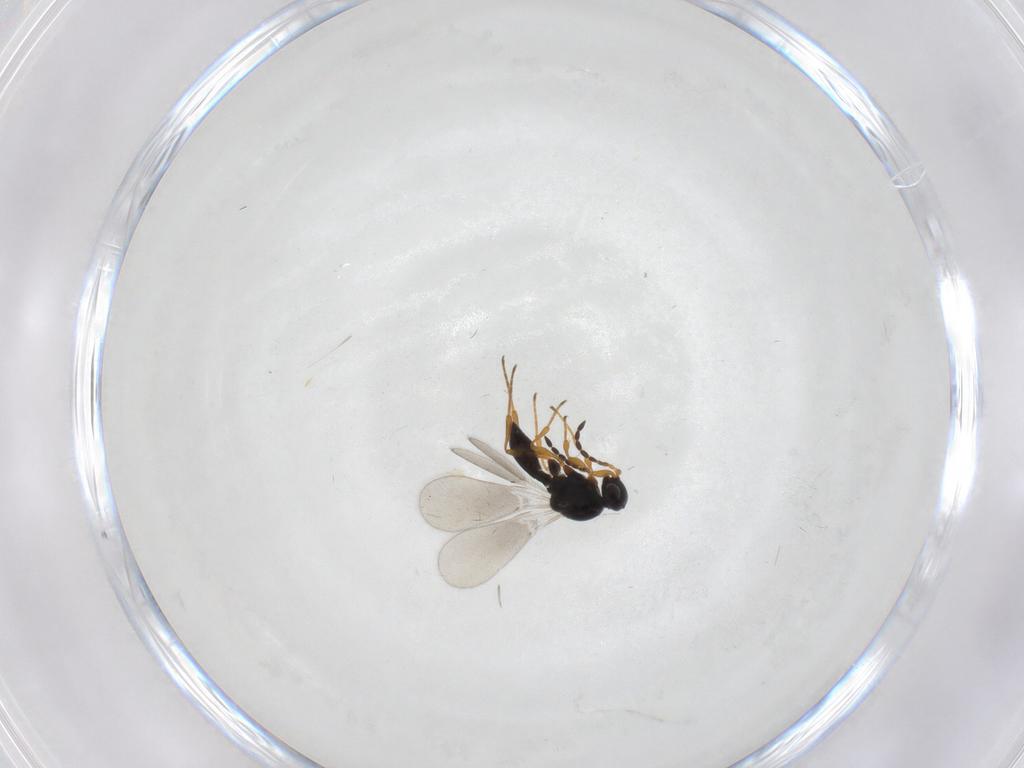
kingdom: Animalia
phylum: Arthropoda
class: Insecta
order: Hymenoptera
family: Platygastridae
